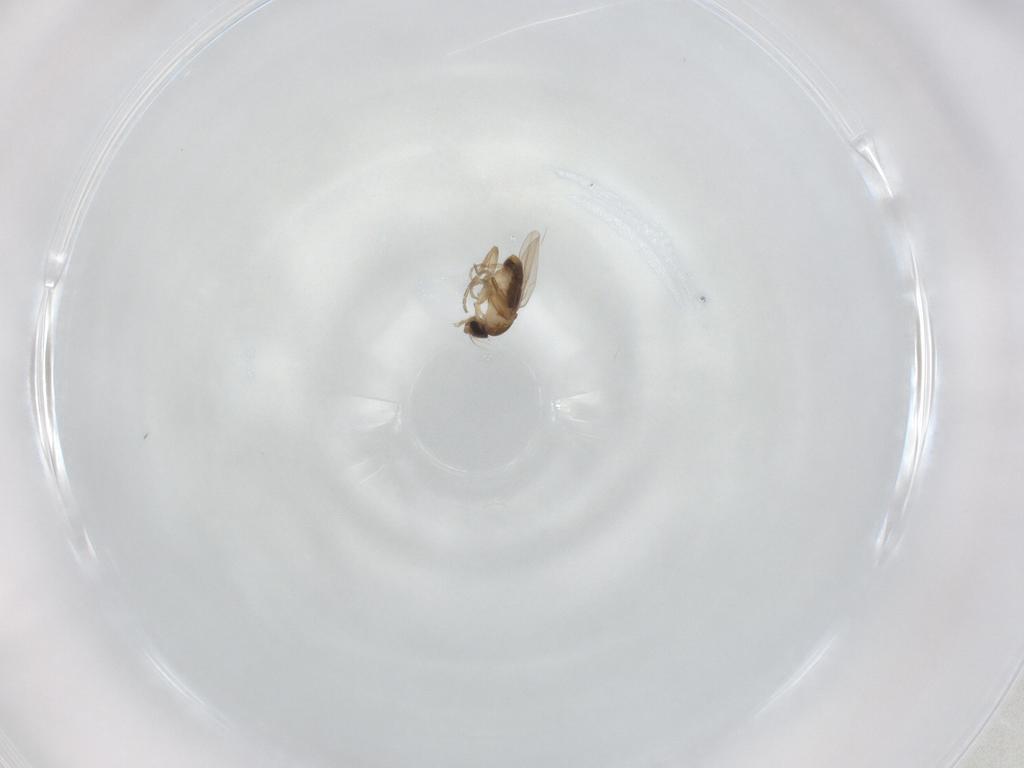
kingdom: Animalia
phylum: Arthropoda
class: Insecta
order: Diptera
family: Phoridae
